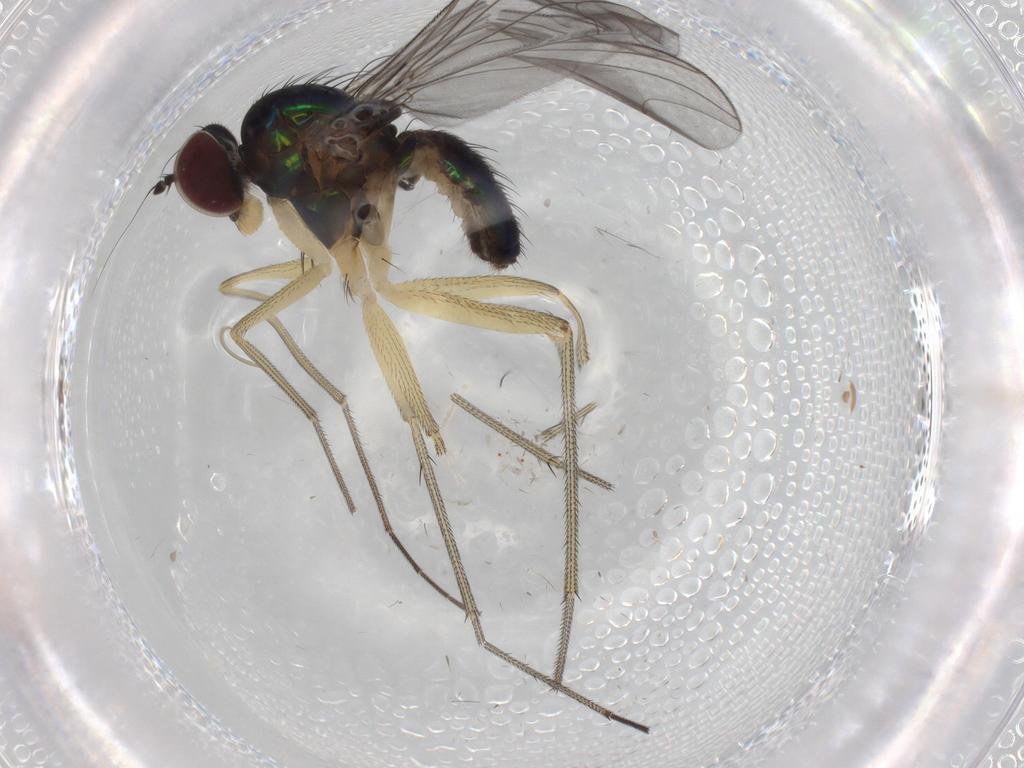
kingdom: Animalia
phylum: Arthropoda
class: Insecta
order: Diptera
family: Dolichopodidae
